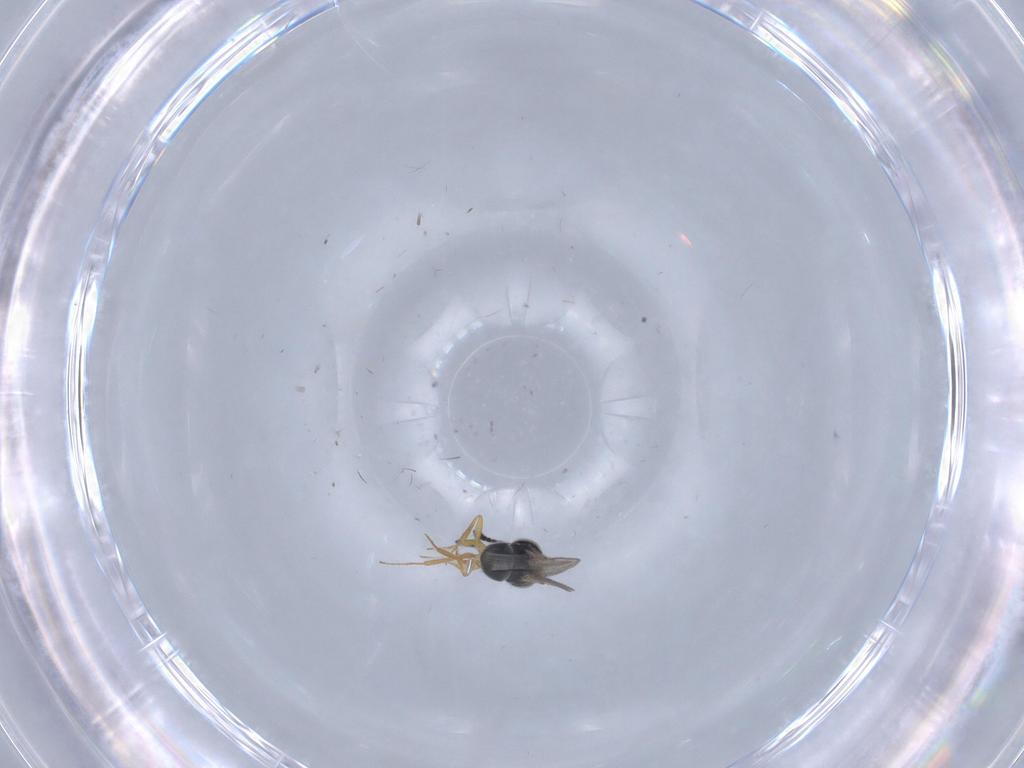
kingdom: Animalia
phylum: Arthropoda
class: Insecta
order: Hymenoptera
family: Scelionidae
